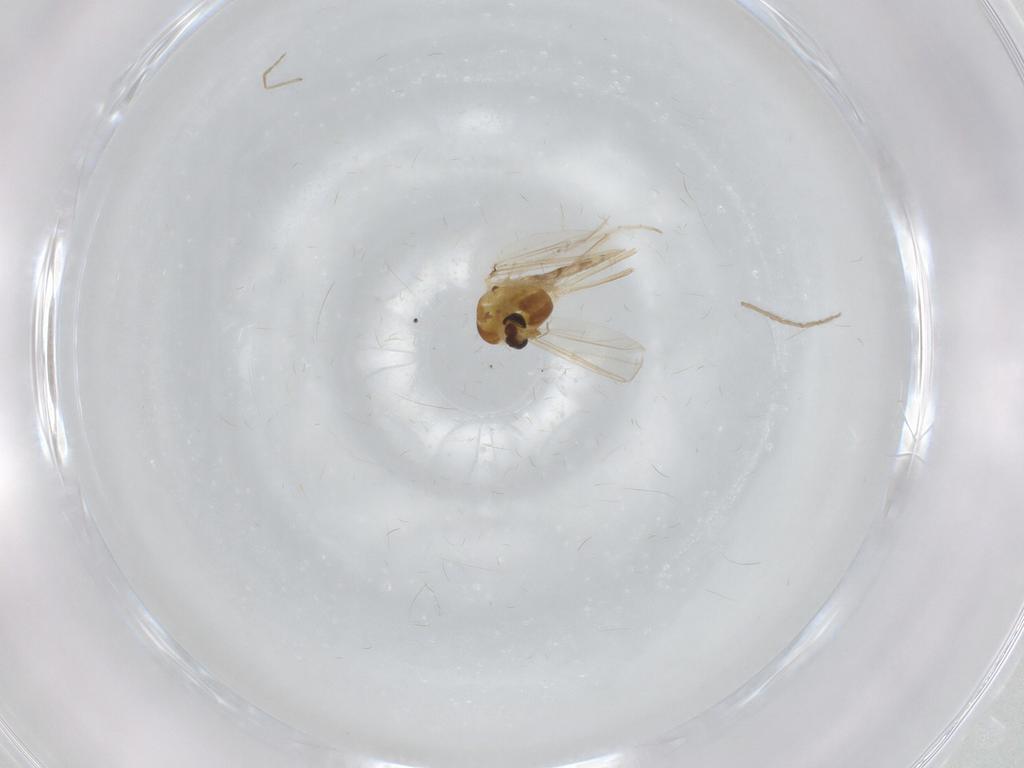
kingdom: Animalia
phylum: Arthropoda
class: Insecta
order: Diptera
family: Chironomidae
